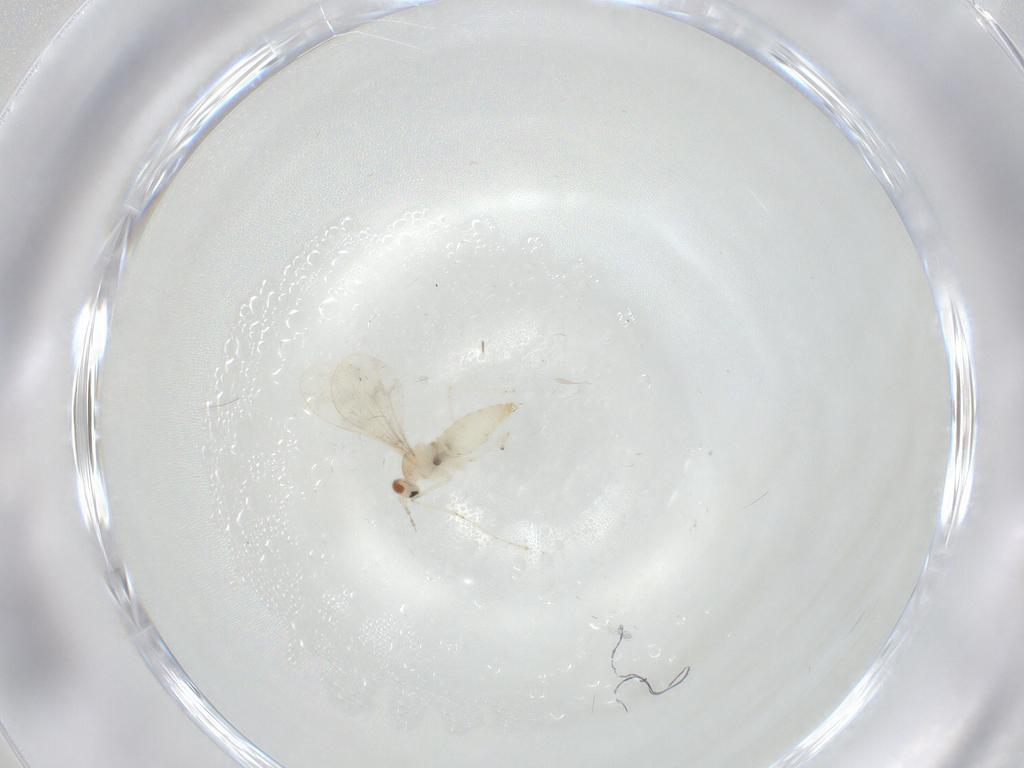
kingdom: Animalia
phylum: Arthropoda
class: Insecta
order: Diptera
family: Cecidomyiidae
